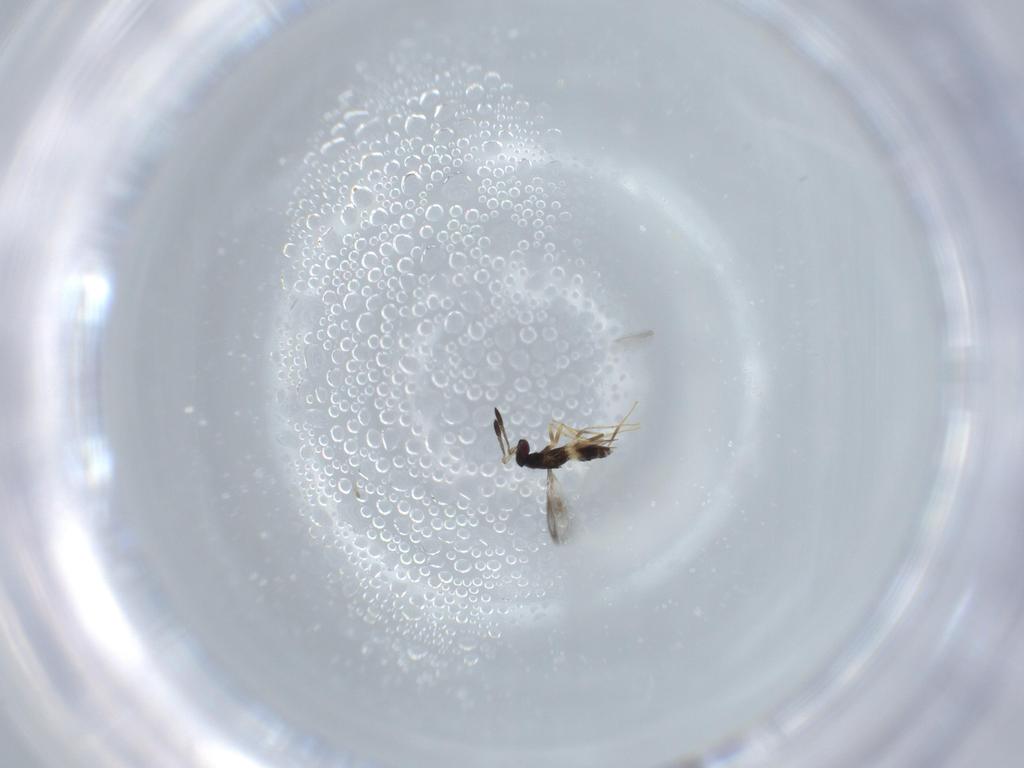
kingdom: Animalia
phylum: Arthropoda
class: Insecta
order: Hymenoptera
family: Mymaridae
